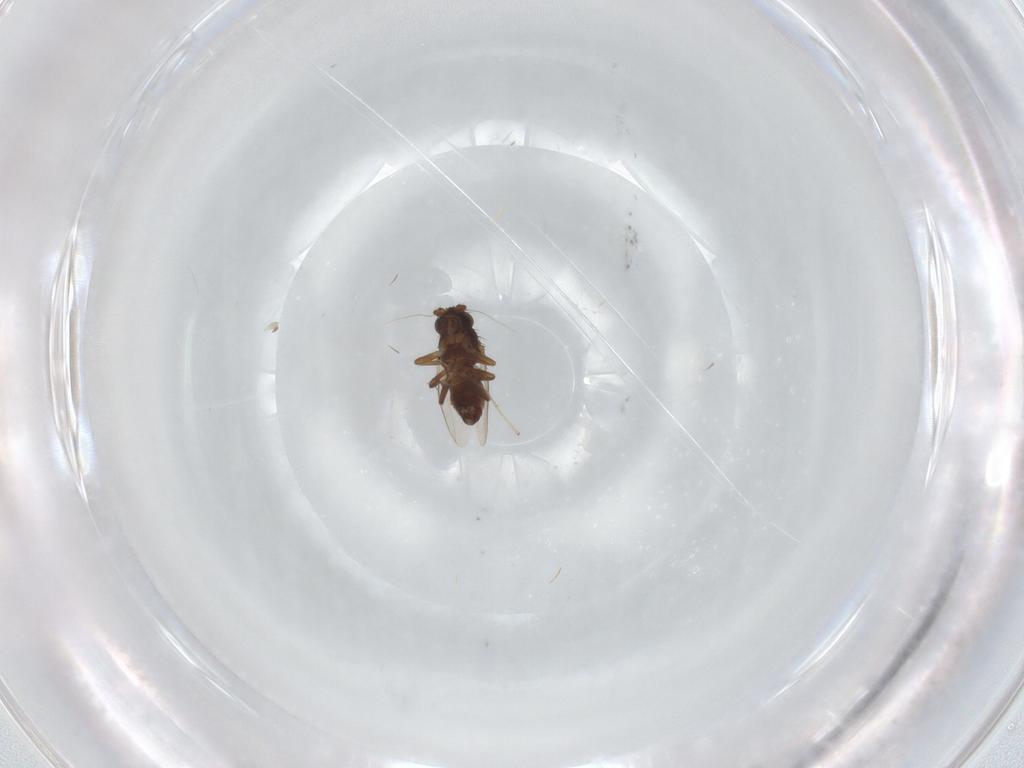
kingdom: Animalia
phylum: Arthropoda
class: Insecta
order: Diptera
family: Sphaeroceridae
